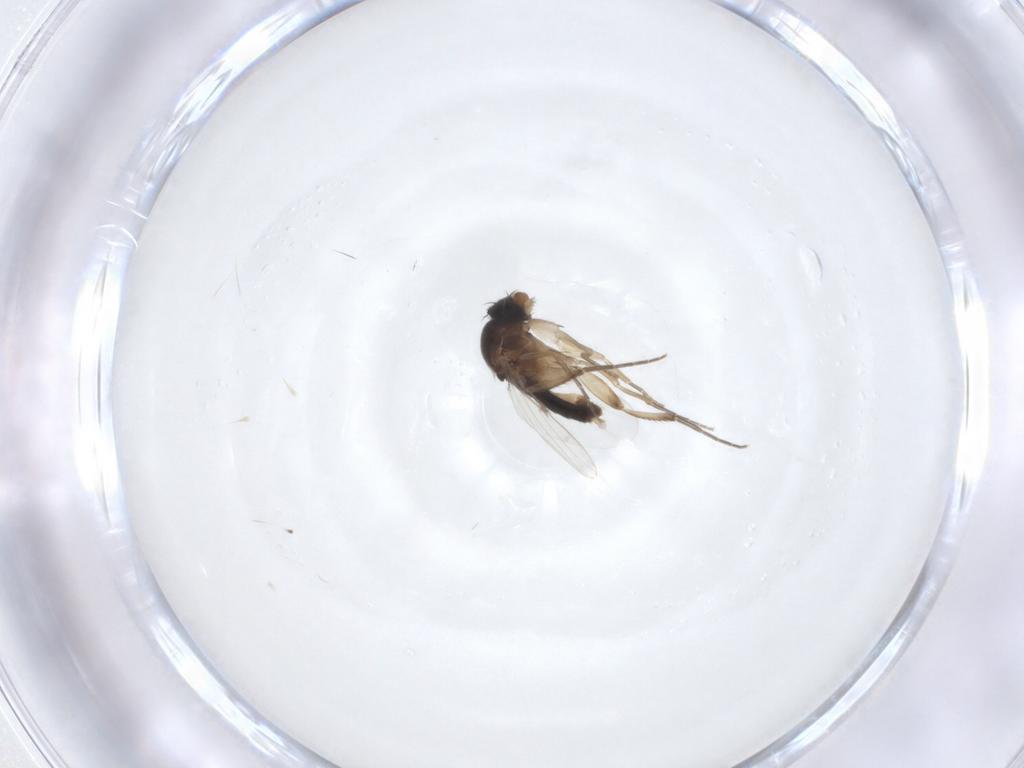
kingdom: Animalia
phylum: Arthropoda
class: Insecta
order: Diptera
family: Phoridae
